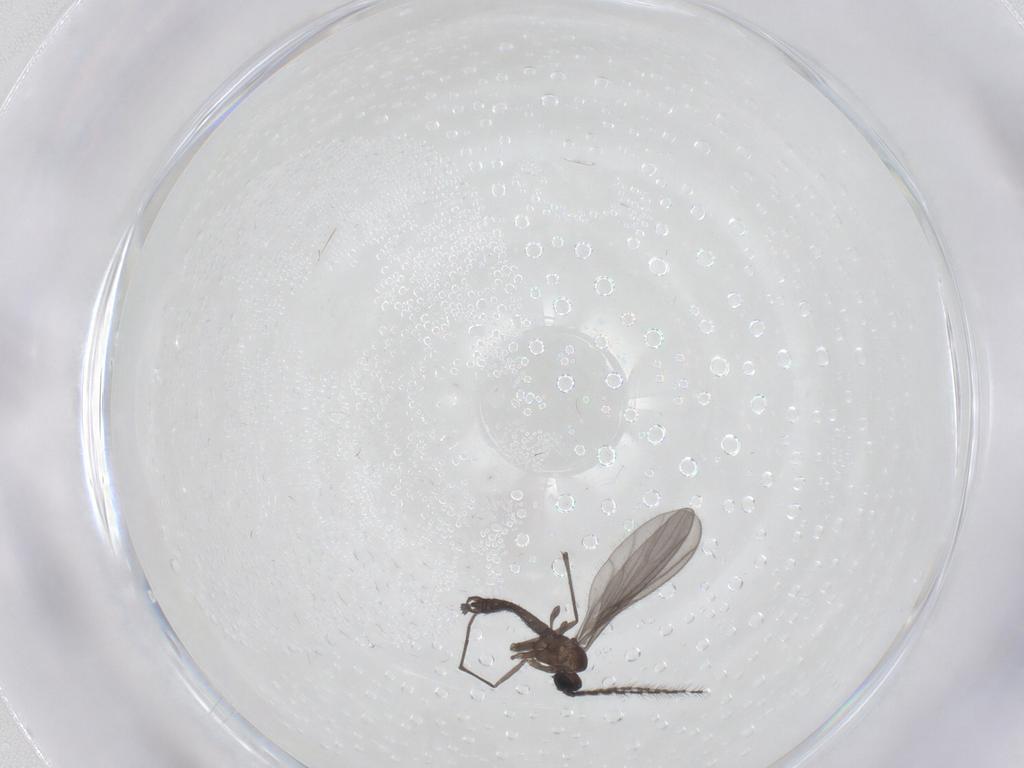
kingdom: Animalia
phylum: Arthropoda
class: Insecta
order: Diptera
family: Sciaridae
